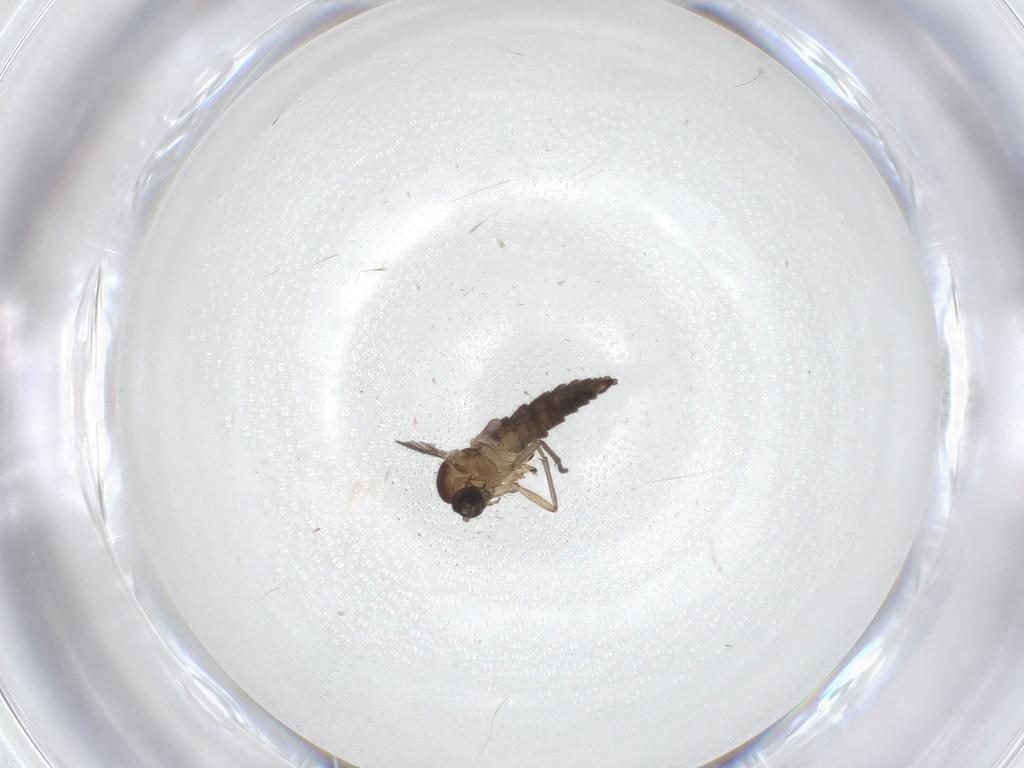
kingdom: Animalia
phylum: Arthropoda
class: Insecta
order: Diptera
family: Sciaridae
